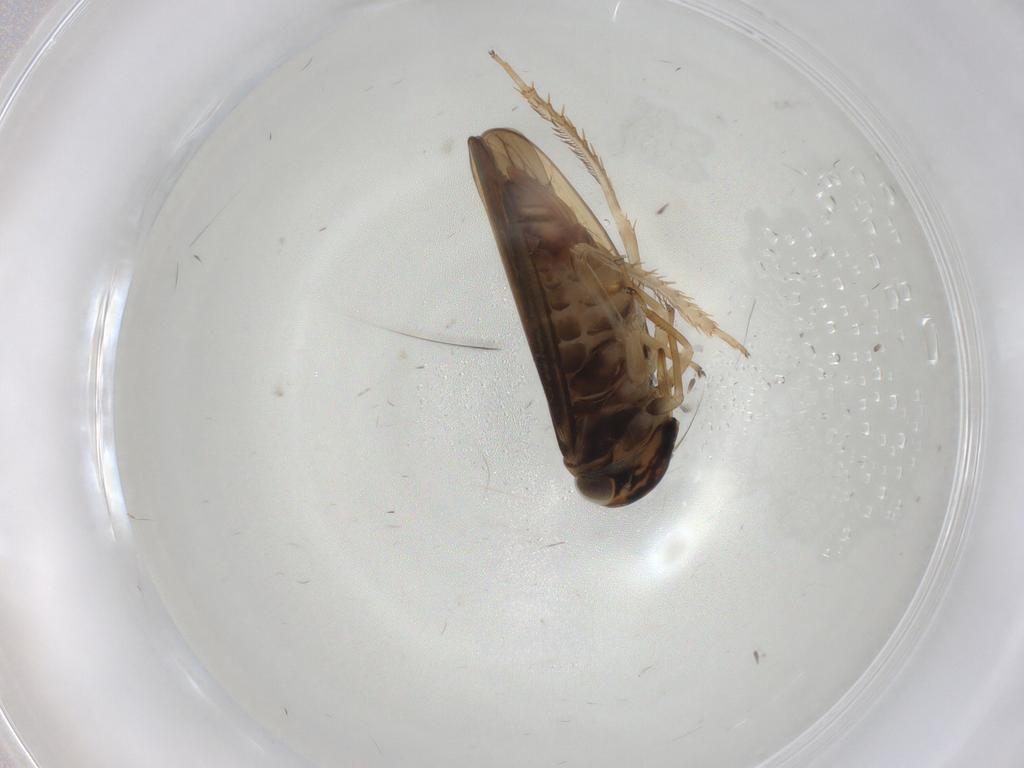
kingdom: Animalia
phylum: Arthropoda
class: Insecta
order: Hemiptera
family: Cicadellidae
